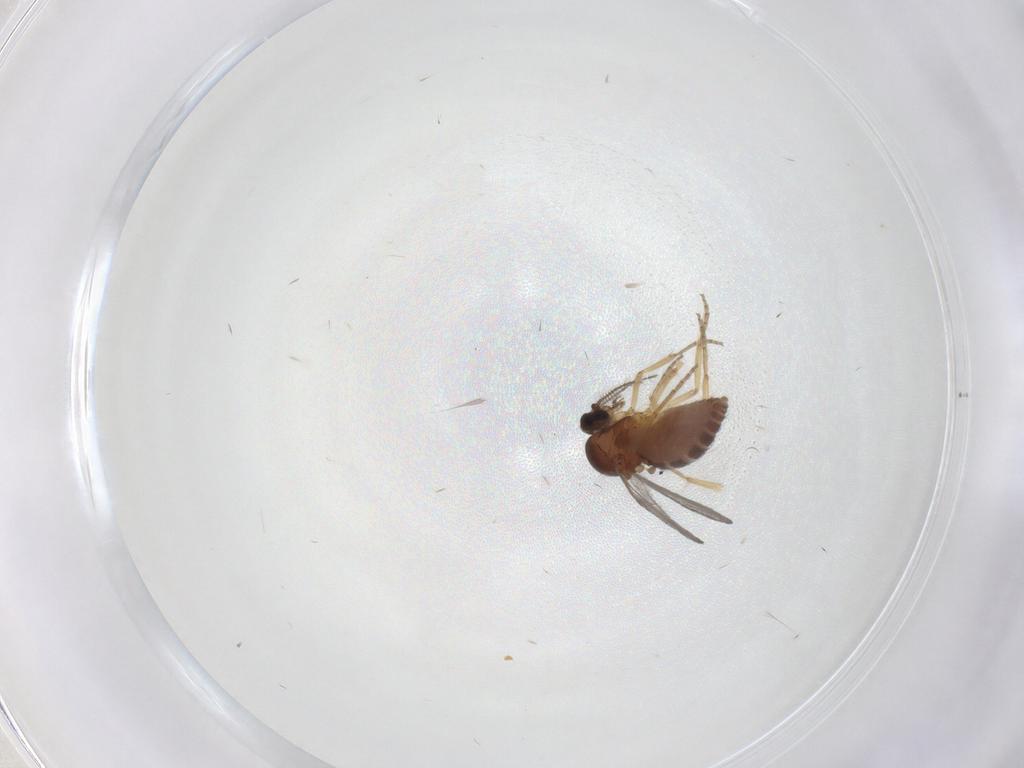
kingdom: Animalia
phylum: Arthropoda
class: Insecta
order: Diptera
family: Ceratopogonidae
